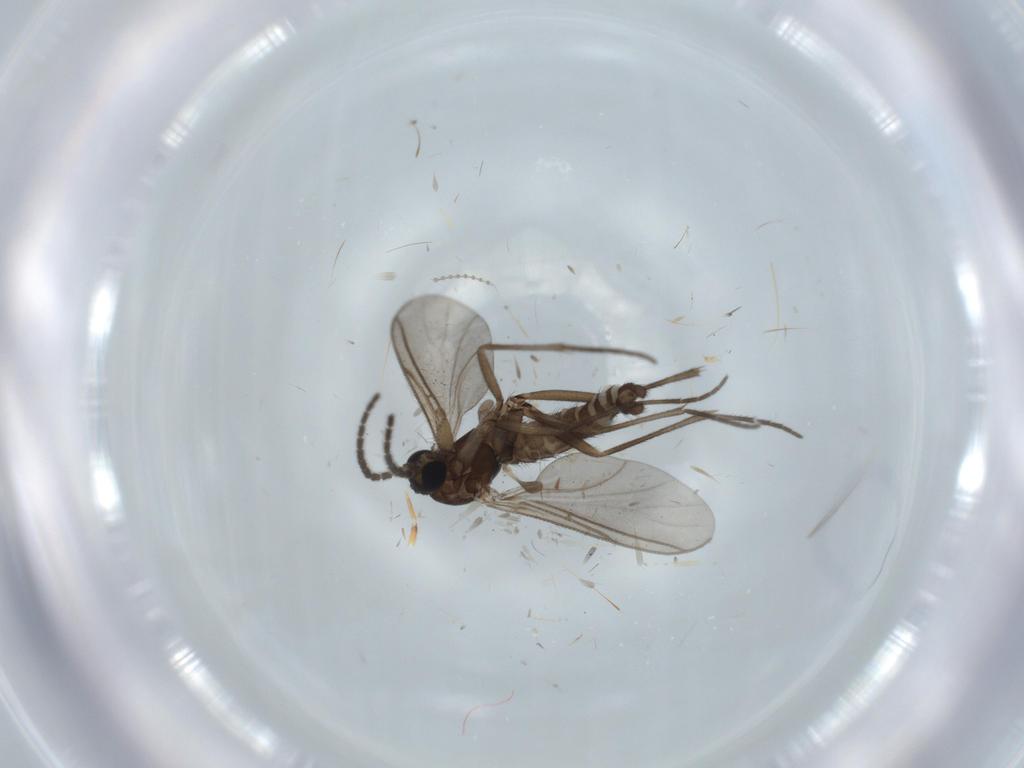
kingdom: Animalia
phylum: Arthropoda
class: Insecta
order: Diptera
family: Sciaridae
